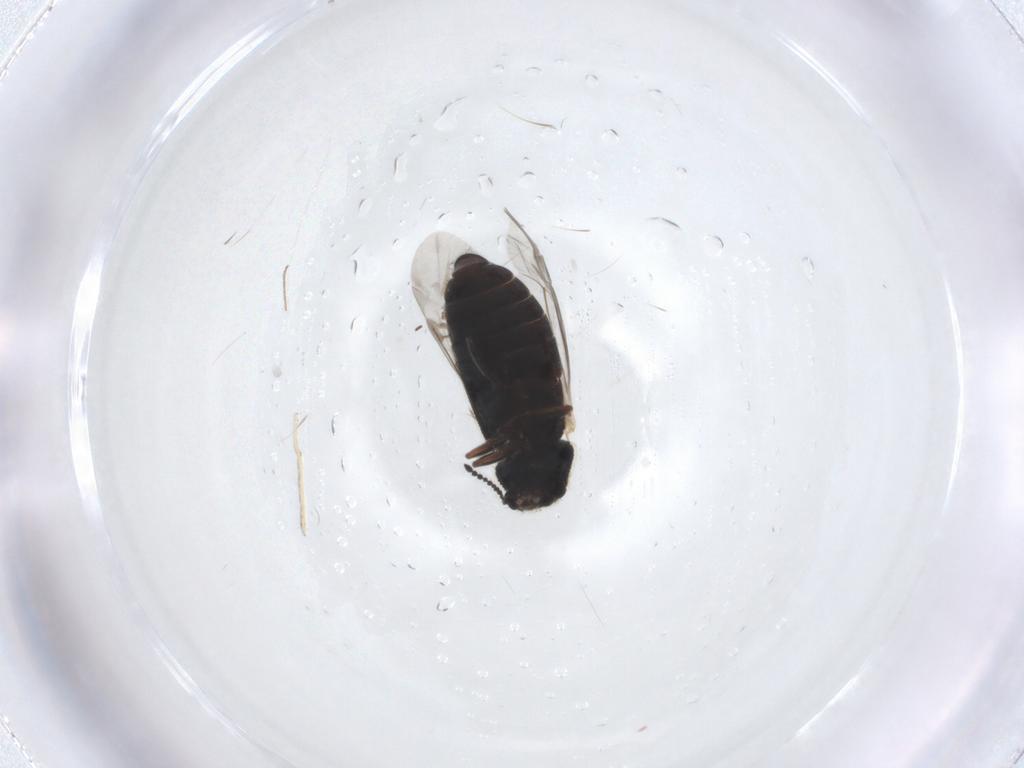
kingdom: Animalia
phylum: Arthropoda
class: Insecta
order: Coleoptera
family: Melyridae
